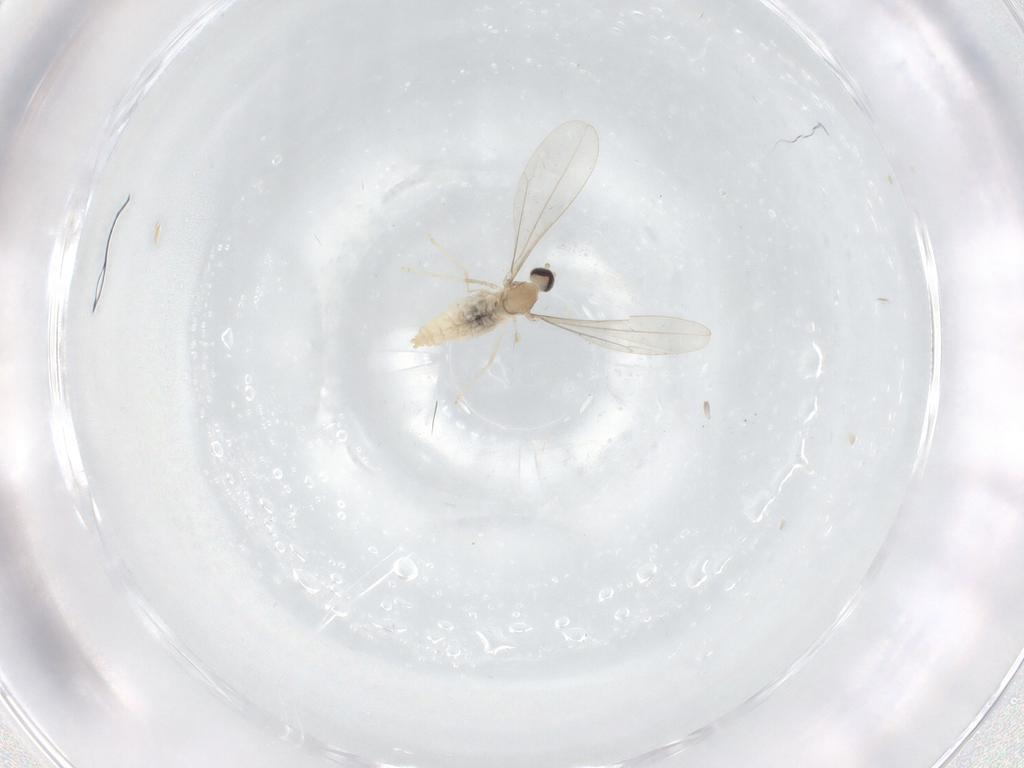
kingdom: Animalia
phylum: Arthropoda
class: Insecta
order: Diptera
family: Cecidomyiidae
